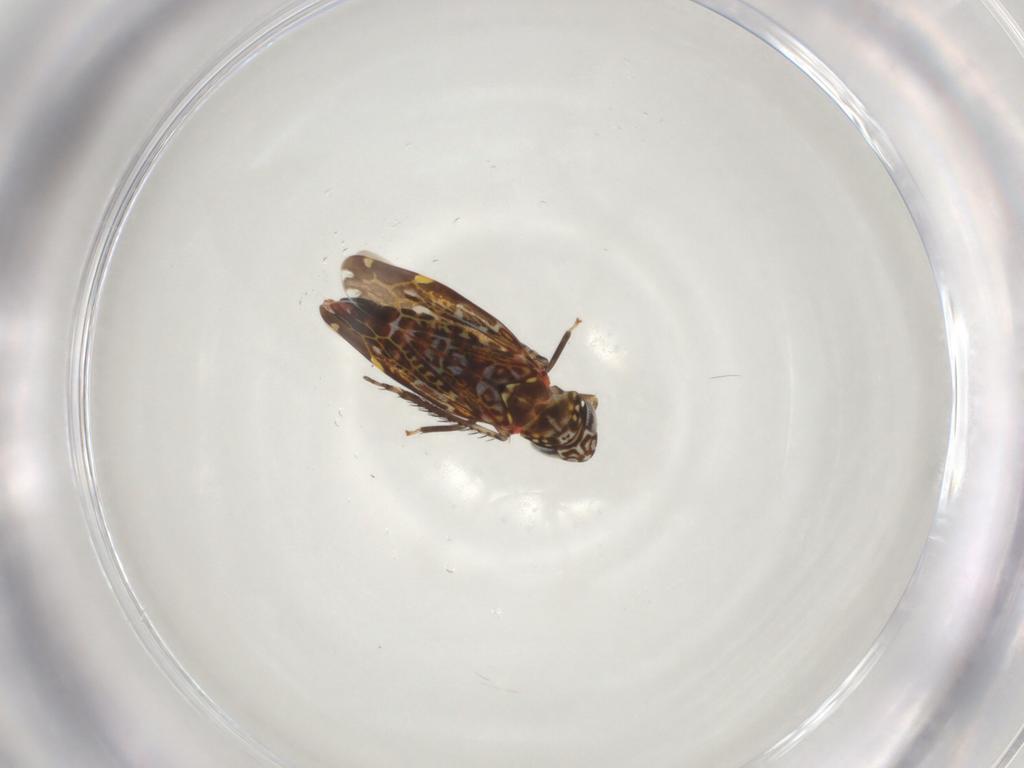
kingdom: Animalia
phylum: Arthropoda
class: Insecta
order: Hemiptera
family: Cicadellidae
